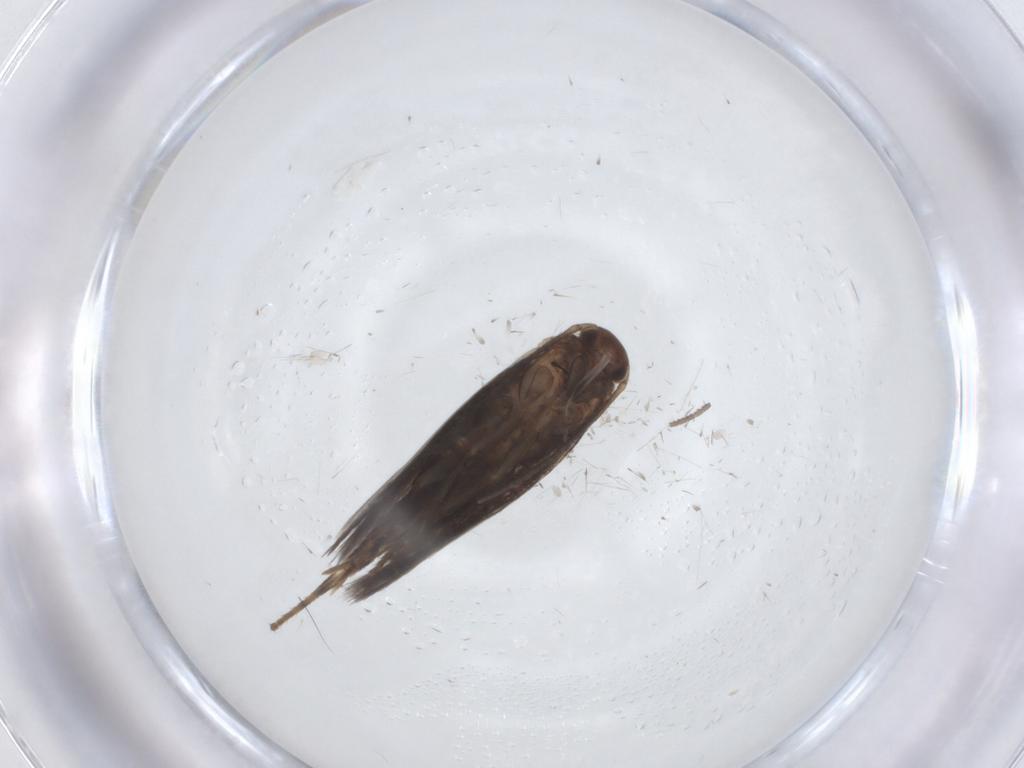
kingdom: Animalia
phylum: Arthropoda
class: Insecta
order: Lepidoptera
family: Elachistidae
